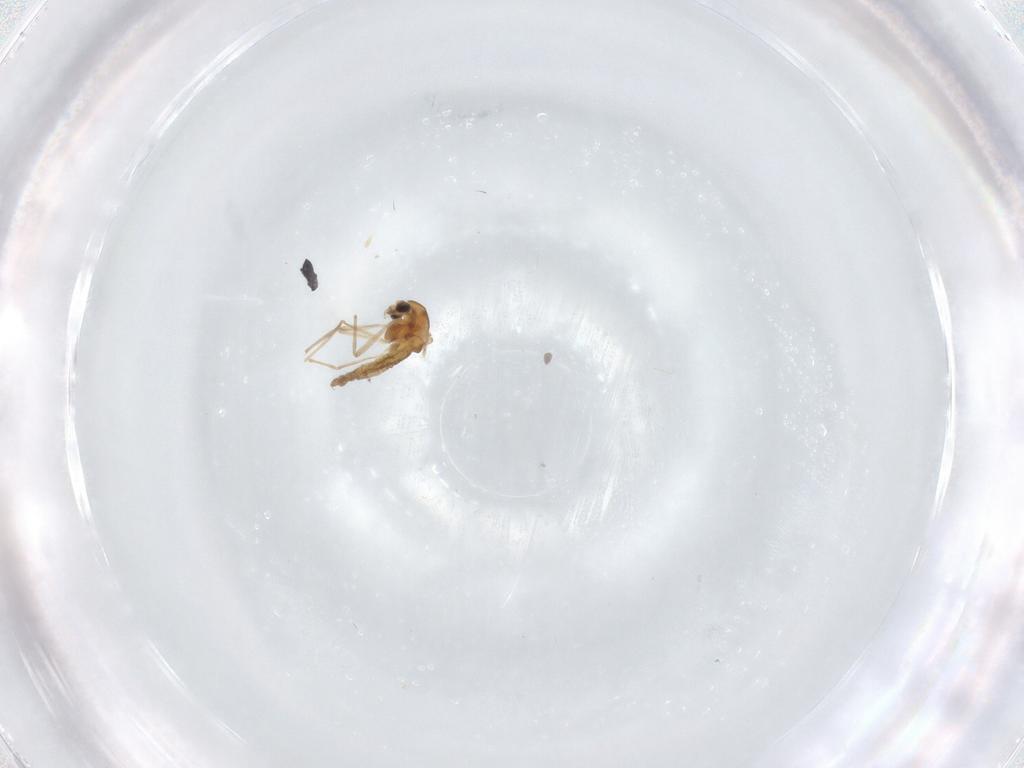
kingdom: Animalia
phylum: Arthropoda
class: Insecta
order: Diptera
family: Chironomidae
